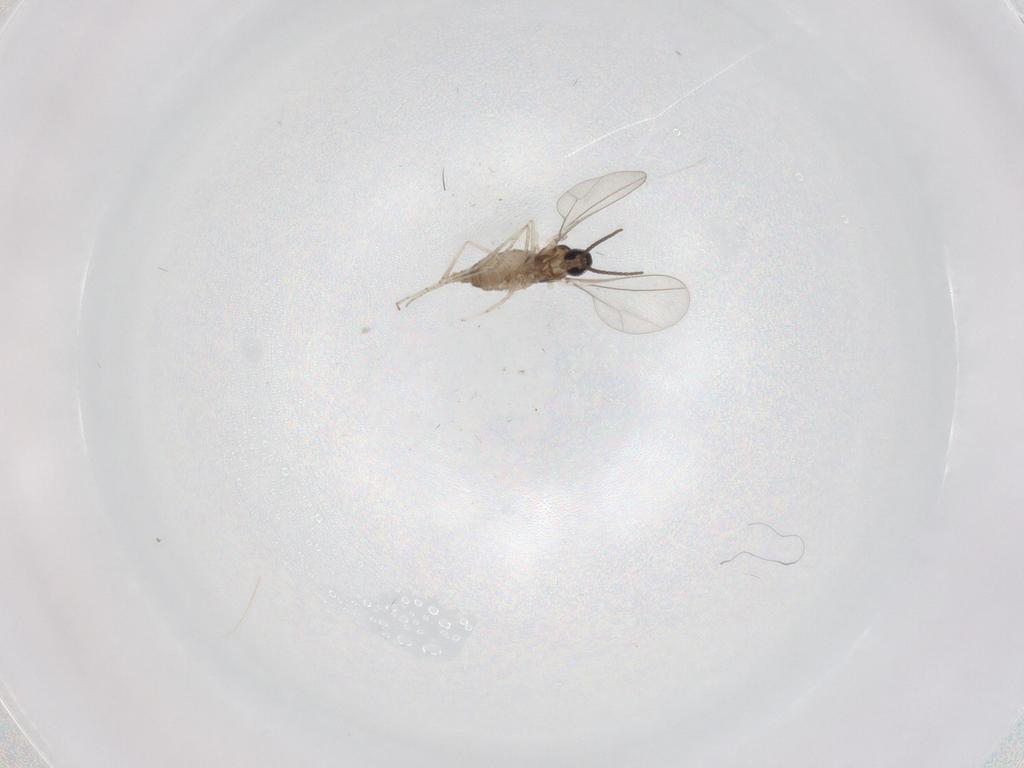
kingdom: Animalia
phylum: Arthropoda
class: Insecta
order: Diptera
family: Tabanidae
